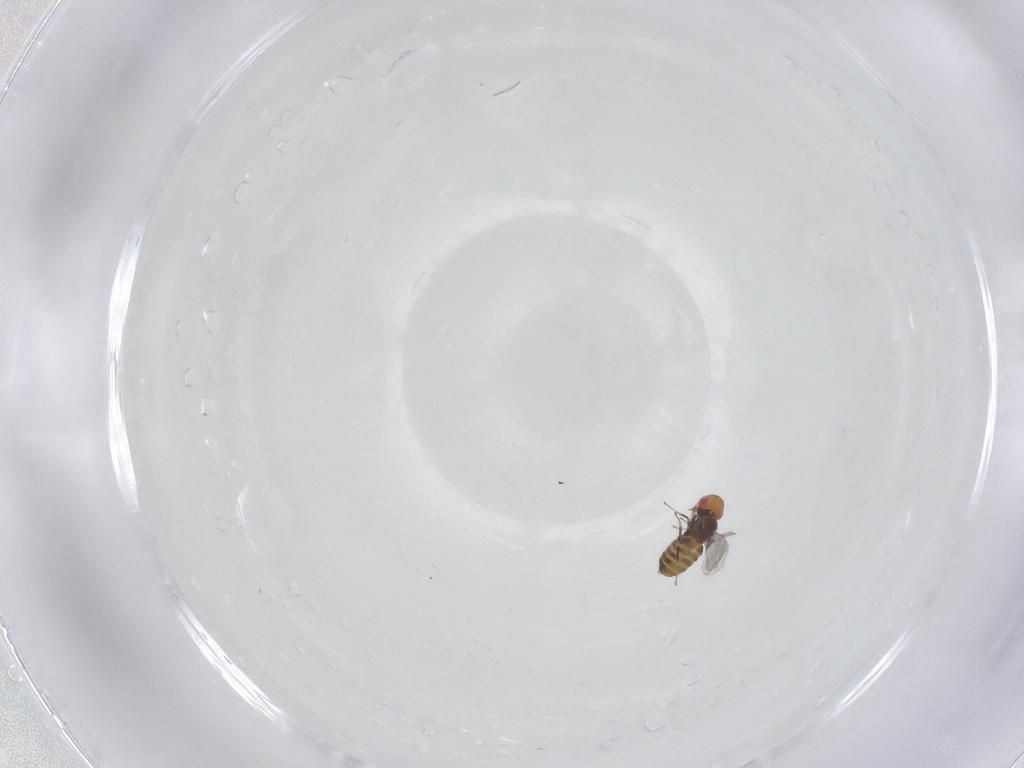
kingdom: Animalia
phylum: Arthropoda
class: Insecta
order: Hymenoptera
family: Trichogrammatidae
